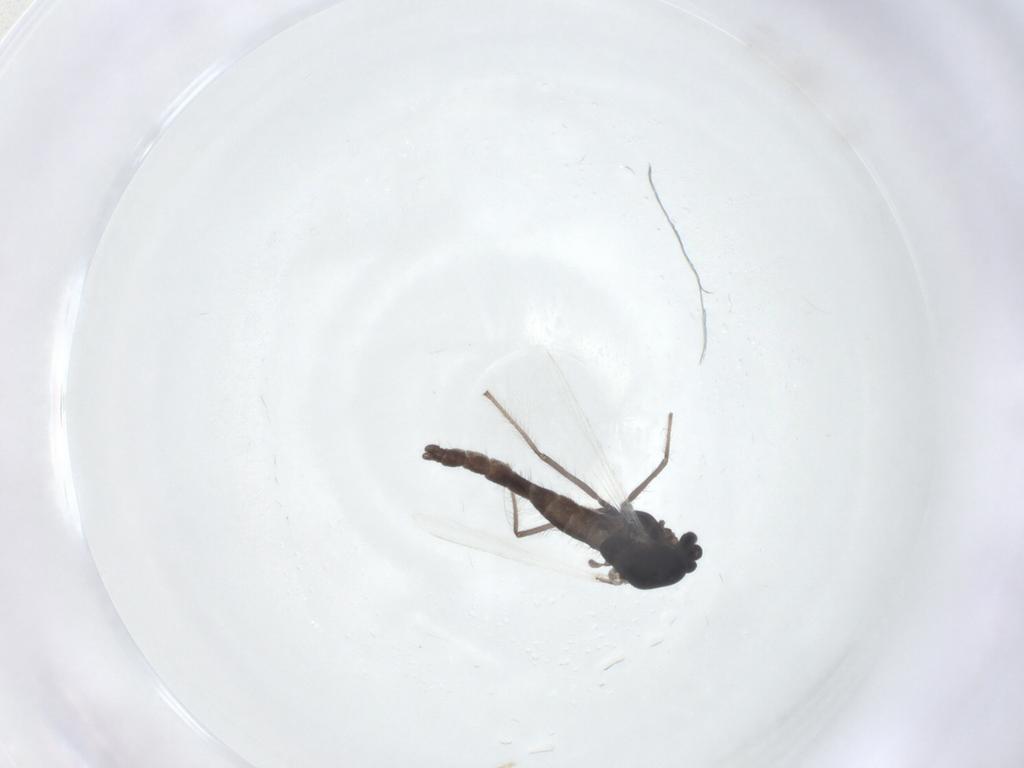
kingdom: Animalia
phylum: Arthropoda
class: Insecta
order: Diptera
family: Chironomidae
